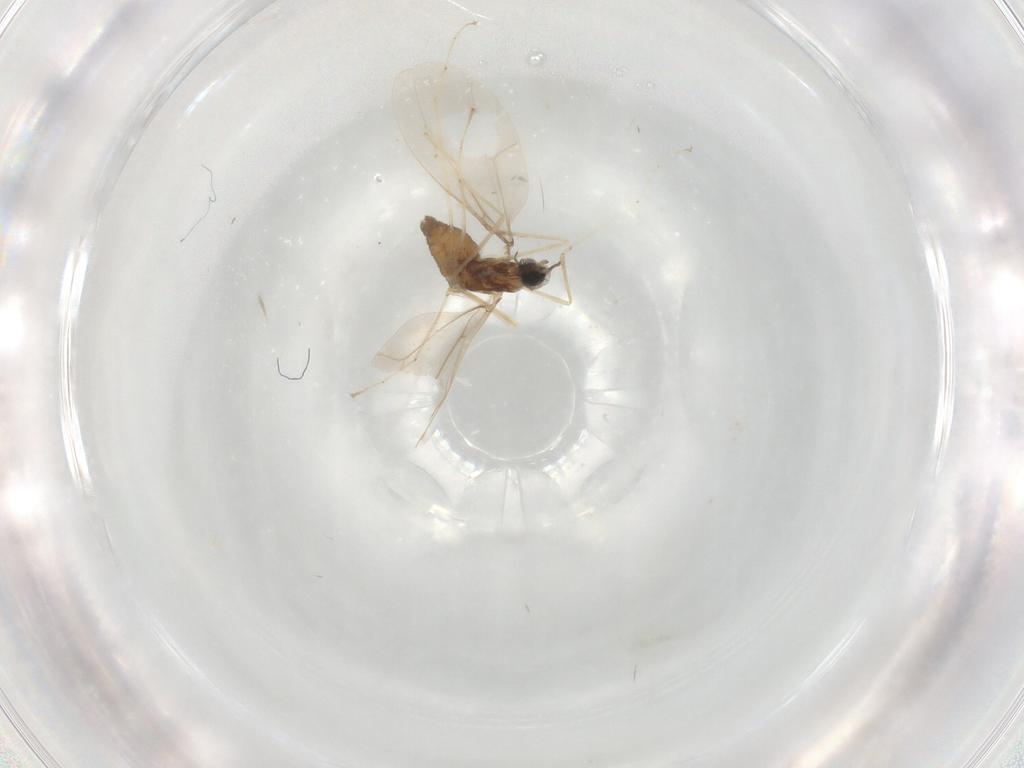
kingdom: Animalia
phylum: Arthropoda
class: Insecta
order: Diptera
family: Cecidomyiidae
